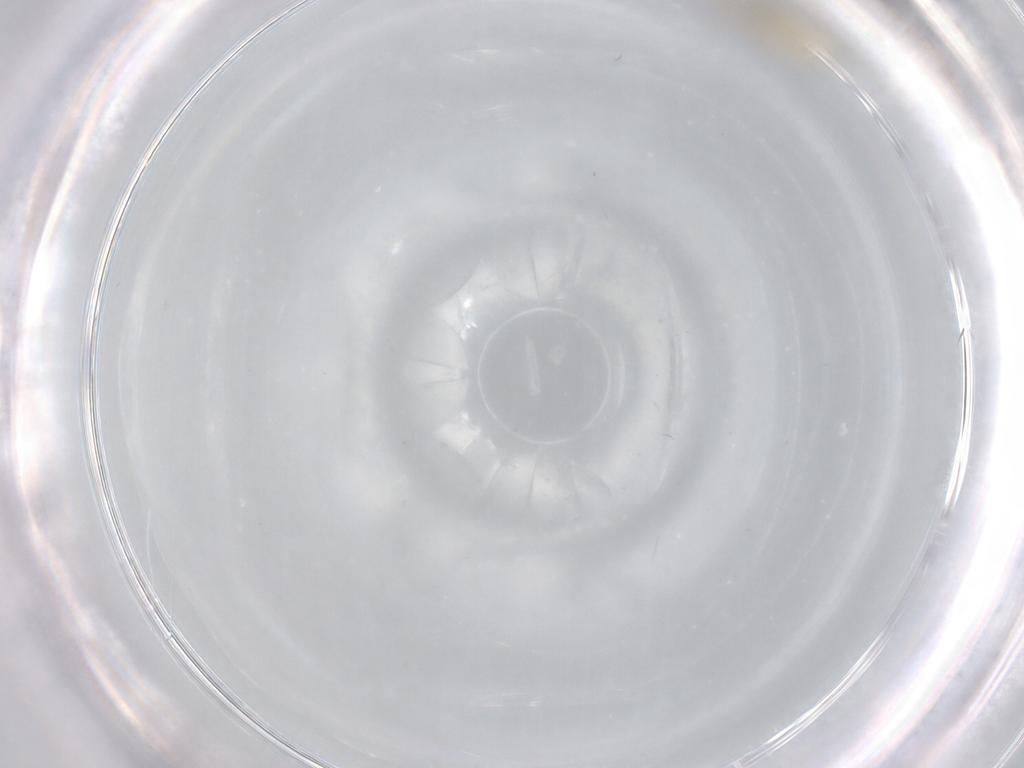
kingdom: Animalia
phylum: Arthropoda
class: Insecta
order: Diptera
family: Cecidomyiidae
